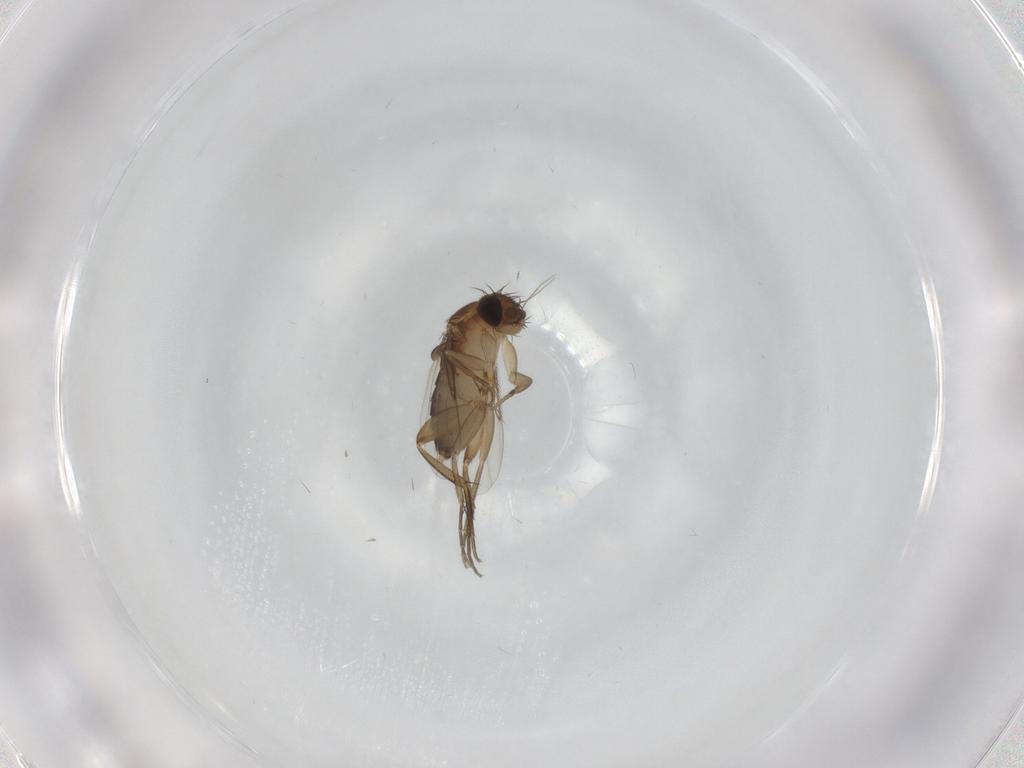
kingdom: Animalia
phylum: Arthropoda
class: Insecta
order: Diptera
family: Phoridae
